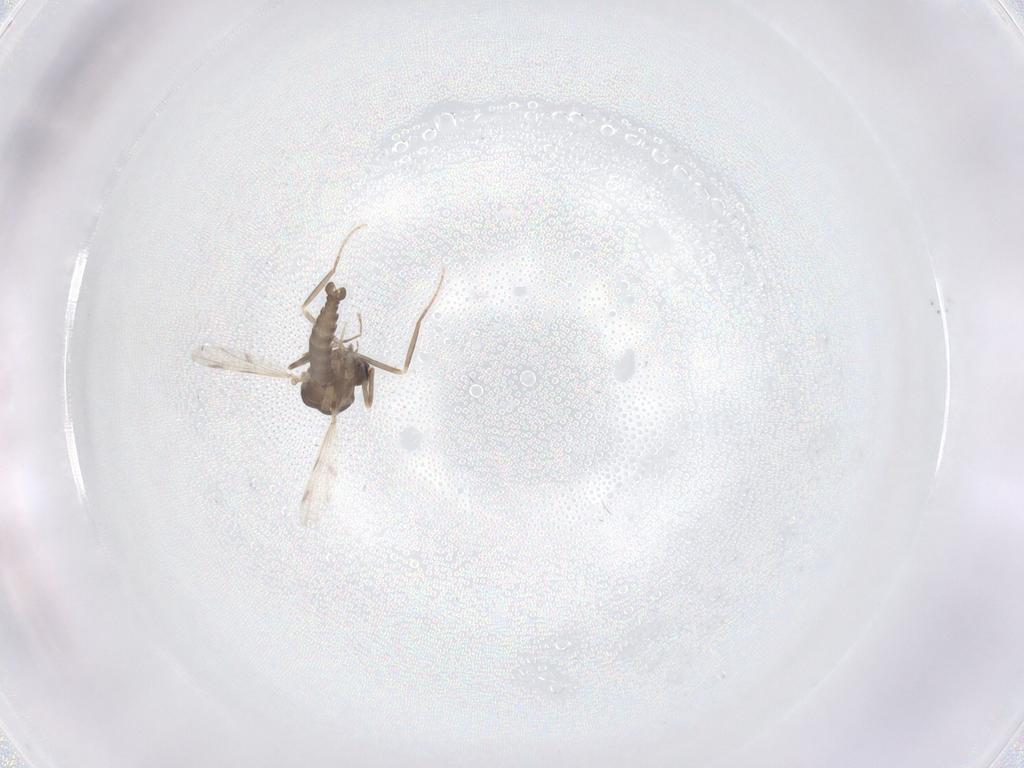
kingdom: Animalia
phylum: Arthropoda
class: Insecta
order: Diptera
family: Ceratopogonidae
